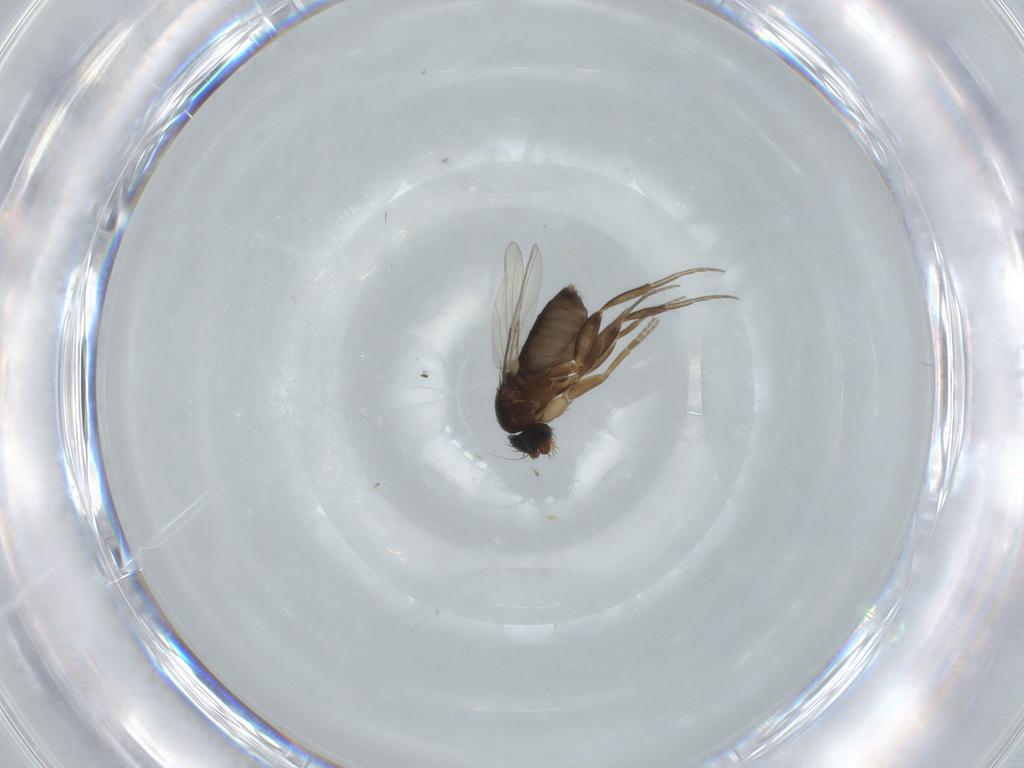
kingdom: Animalia
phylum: Arthropoda
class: Insecta
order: Diptera
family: Phoridae
